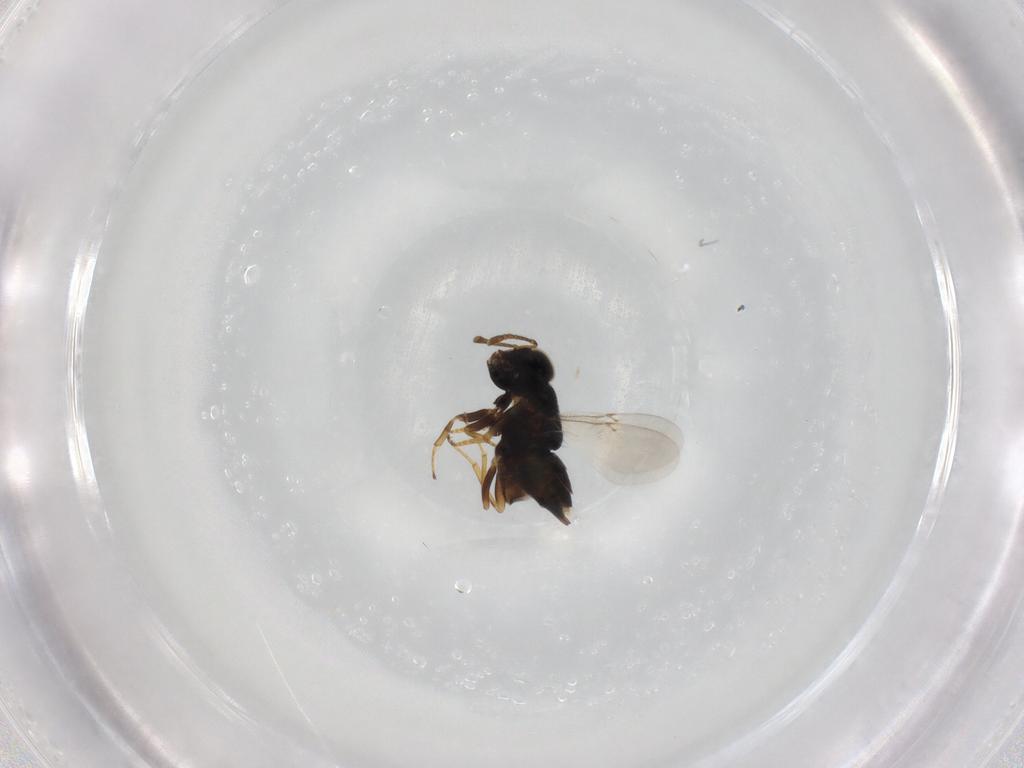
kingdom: Animalia
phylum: Arthropoda
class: Insecta
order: Hymenoptera
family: Encyrtidae
